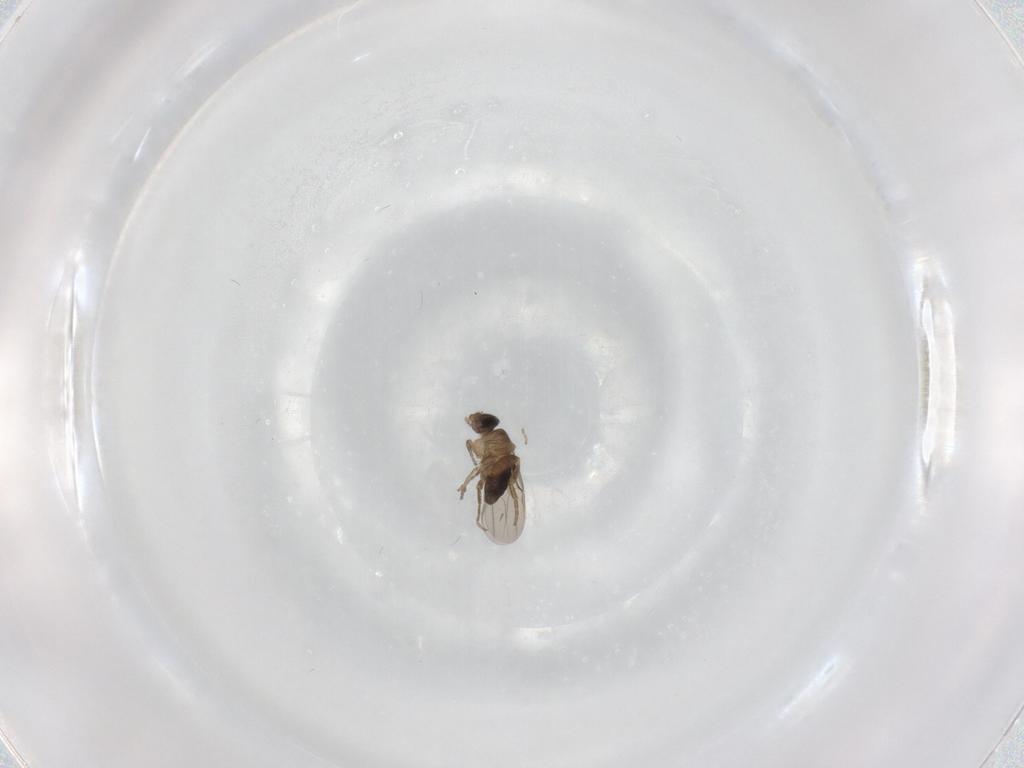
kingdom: Animalia
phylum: Arthropoda
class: Insecta
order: Diptera
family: Phoridae
